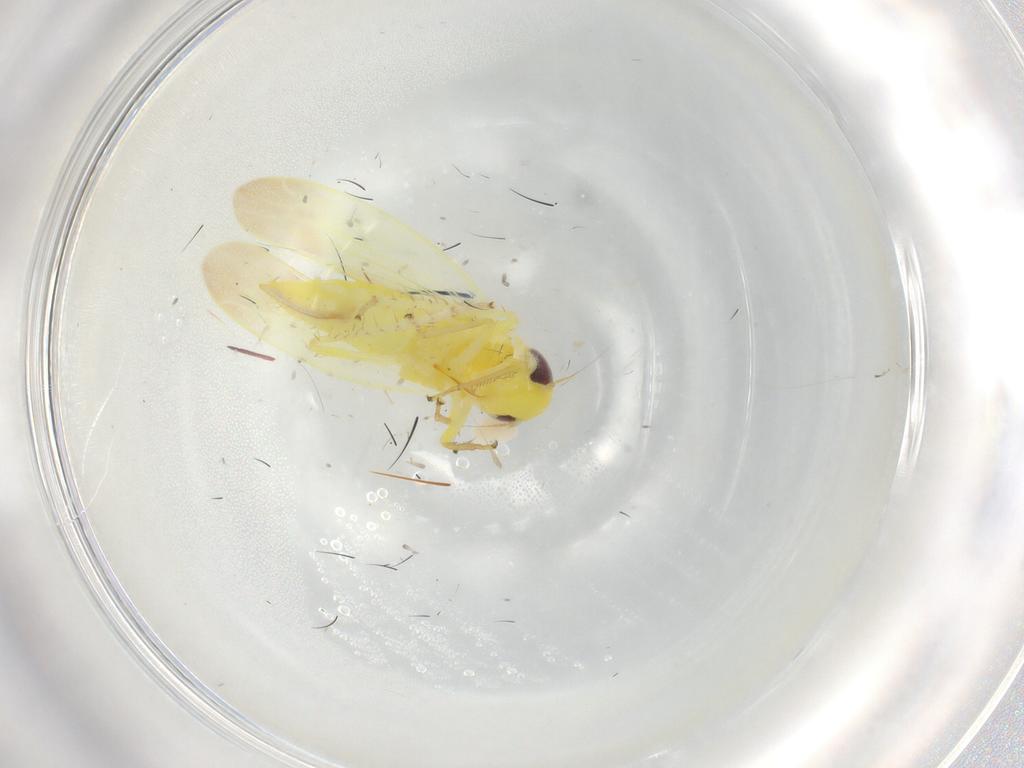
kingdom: Animalia
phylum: Arthropoda
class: Insecta
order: Hemiptera
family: Cicadellidae
